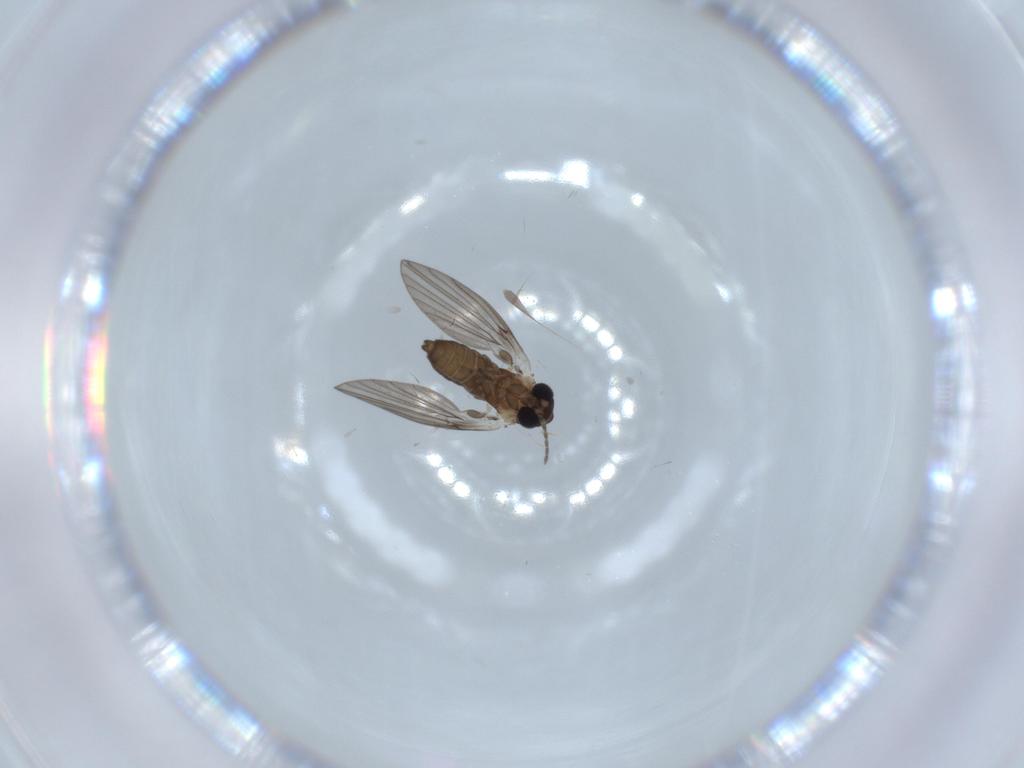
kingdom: Animalia
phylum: Arthropoda
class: Insecta
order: Diptera
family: Psychodidae
